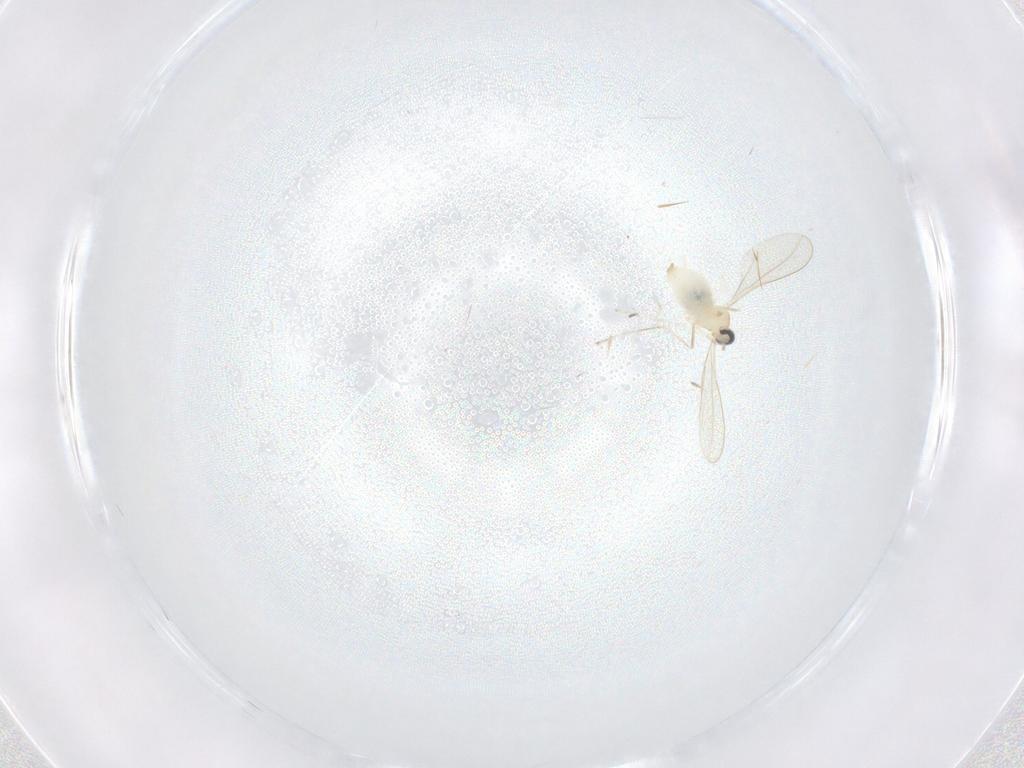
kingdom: Animalia
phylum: Arthropoda
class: Insecta
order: Diptera
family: Cecidomyiidae
